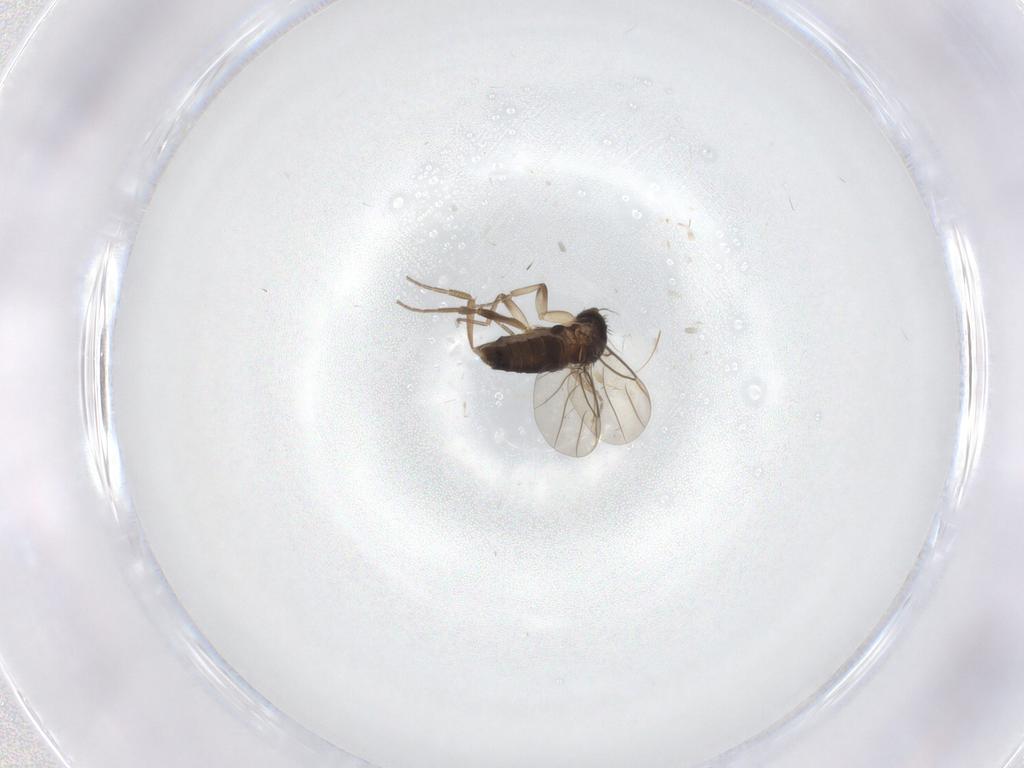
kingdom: Animalia
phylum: Arthropoda
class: Insecta
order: Diptera
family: Phoridae
